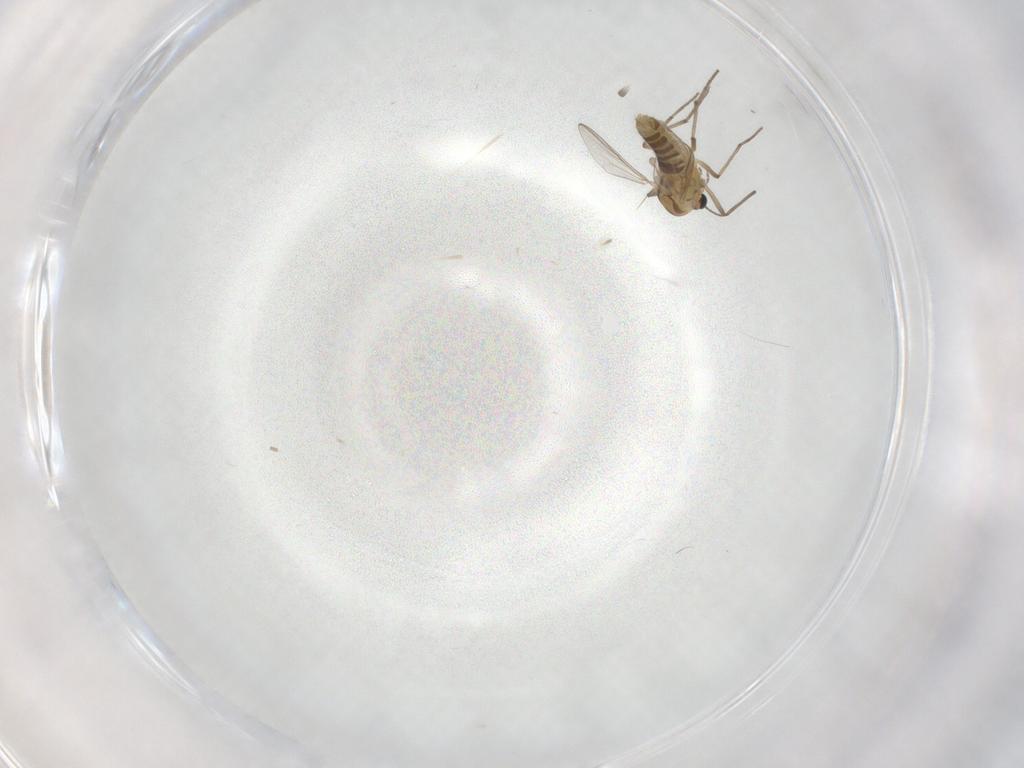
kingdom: Animalia
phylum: Arthropoda
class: Insecta
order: Diptera
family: Chironomidae
